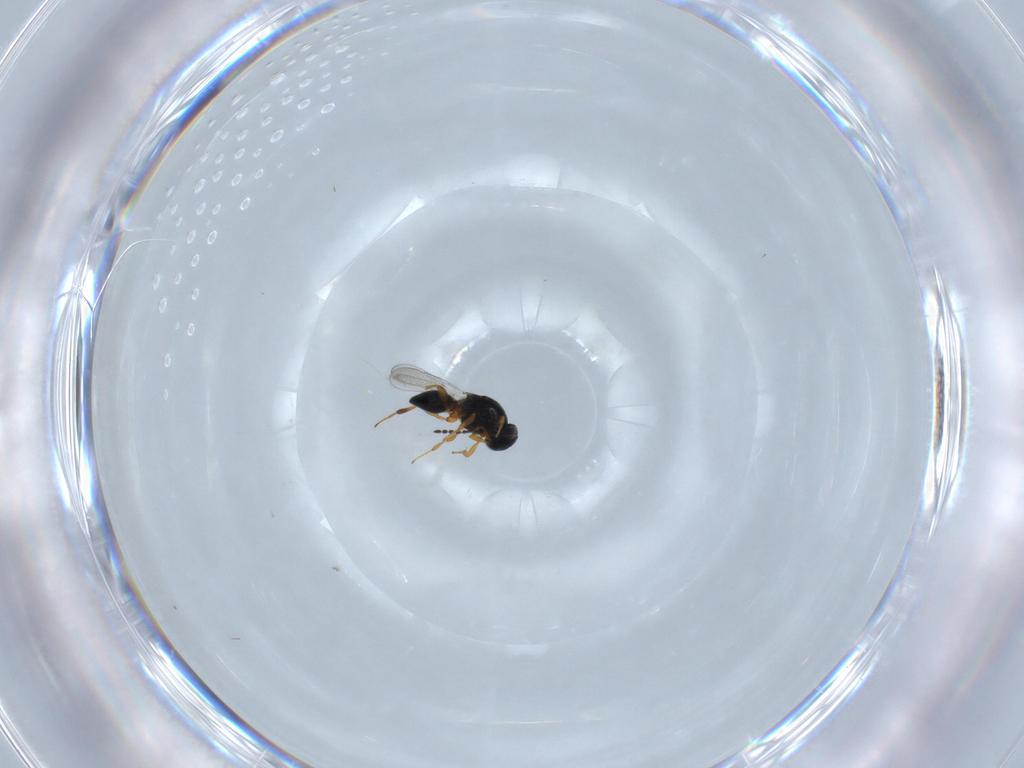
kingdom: Animalia
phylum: Arthropoda
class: Insecta
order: Hymenoptera
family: Platygastridae
